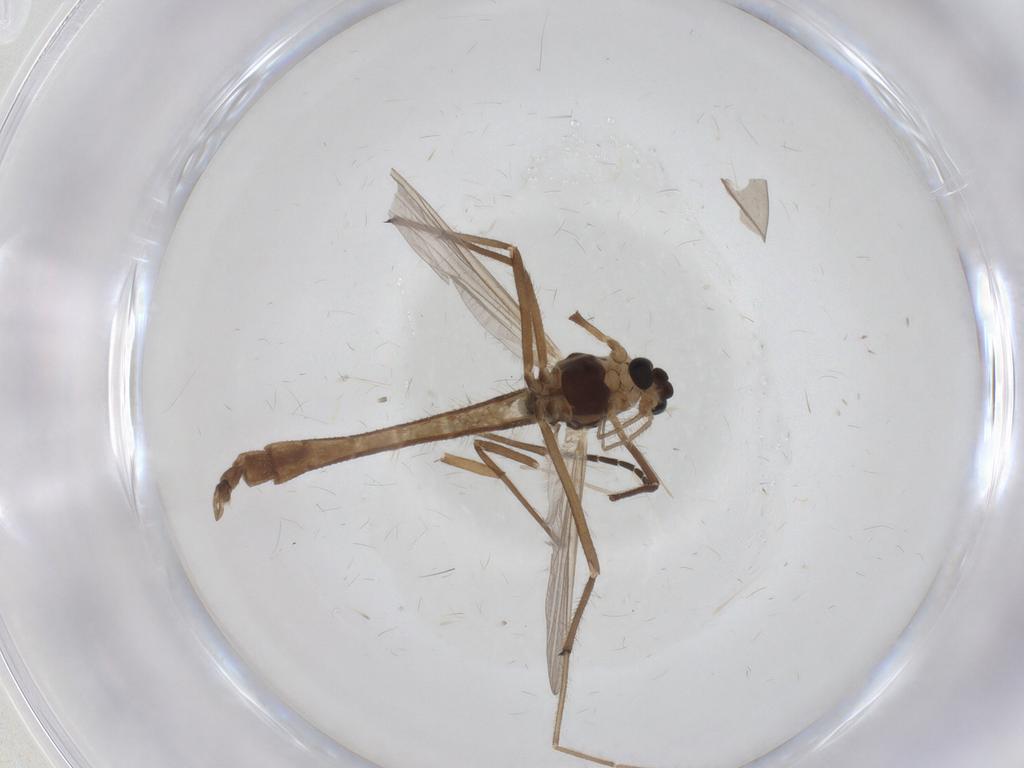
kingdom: Animalia
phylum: Arthropoda
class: Insecta
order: Diptera
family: Chironomidae
